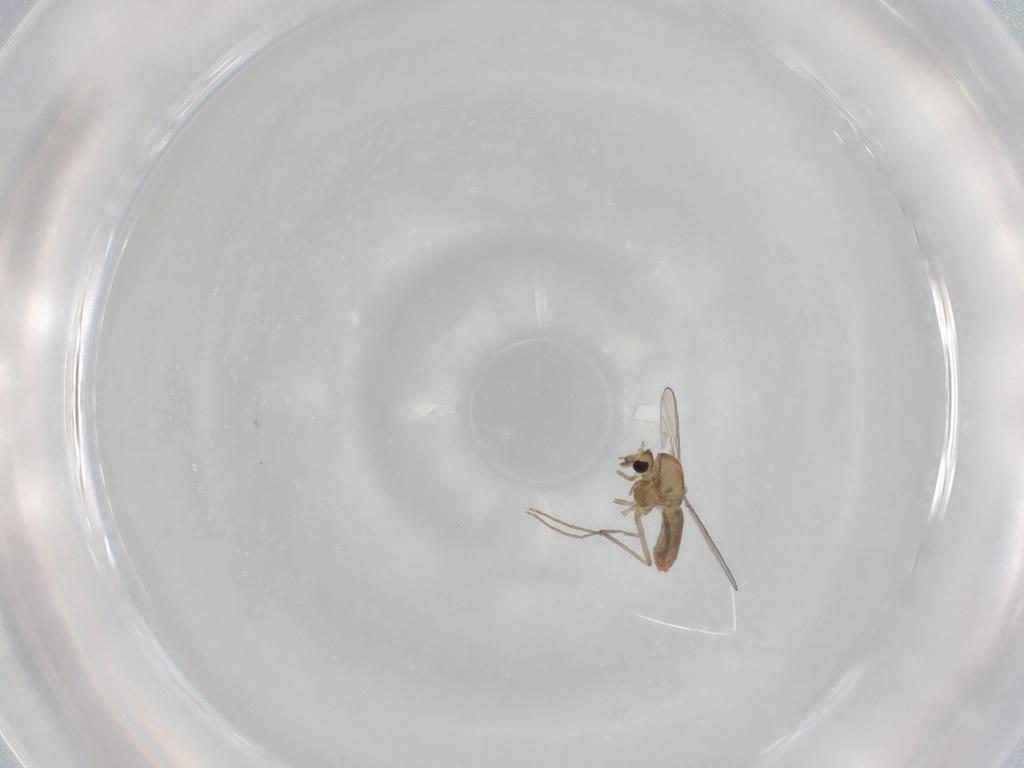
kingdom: Animalia
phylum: Arthropoda
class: Insecta
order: Diptera
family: Chironomidae
